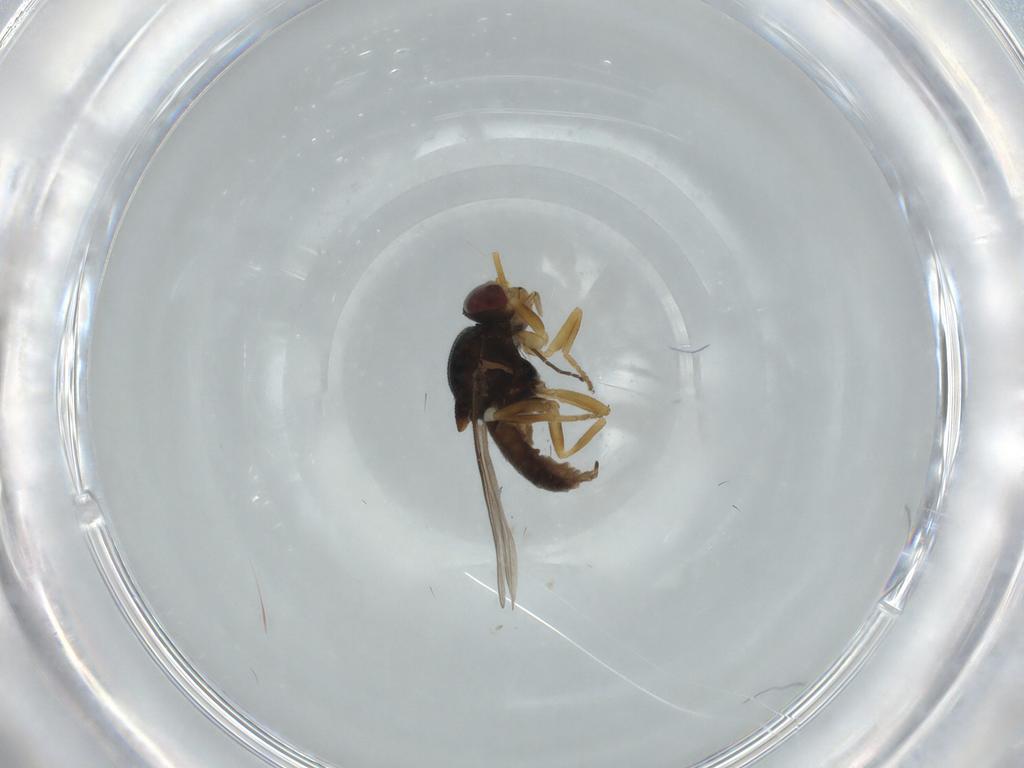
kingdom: Animalia
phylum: Arthropoda
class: Insecta
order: Diptera
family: Chloropidae
